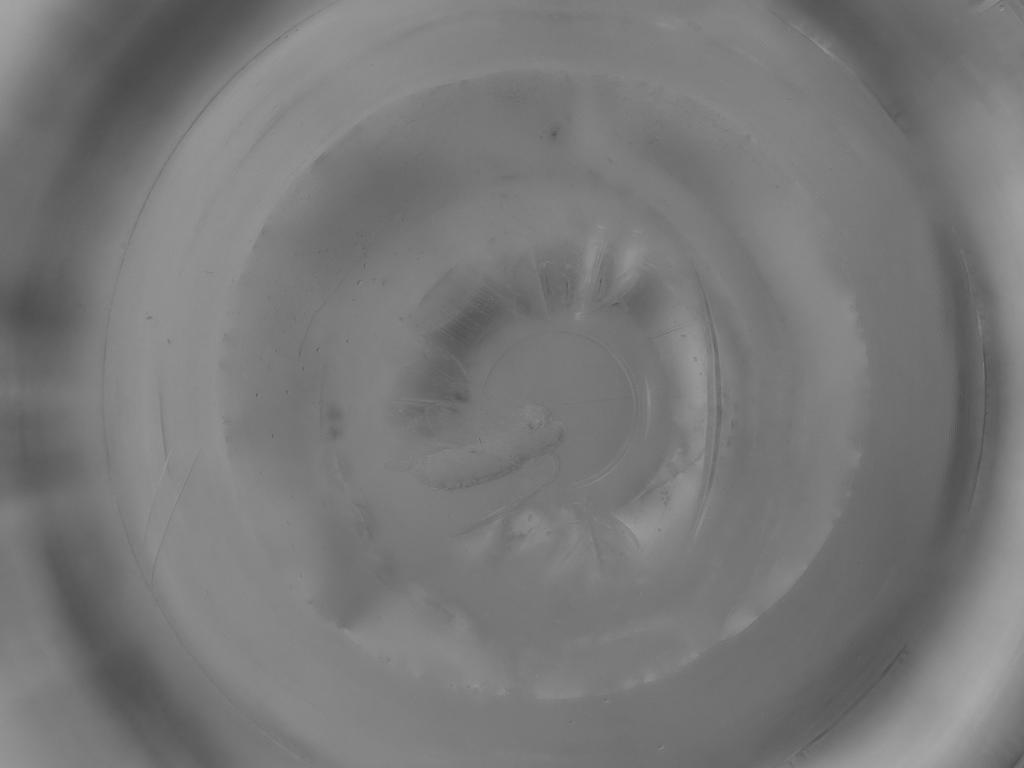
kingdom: Animalia
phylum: Arthropoda
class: Insecta
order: Diptera
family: Psychodidae
